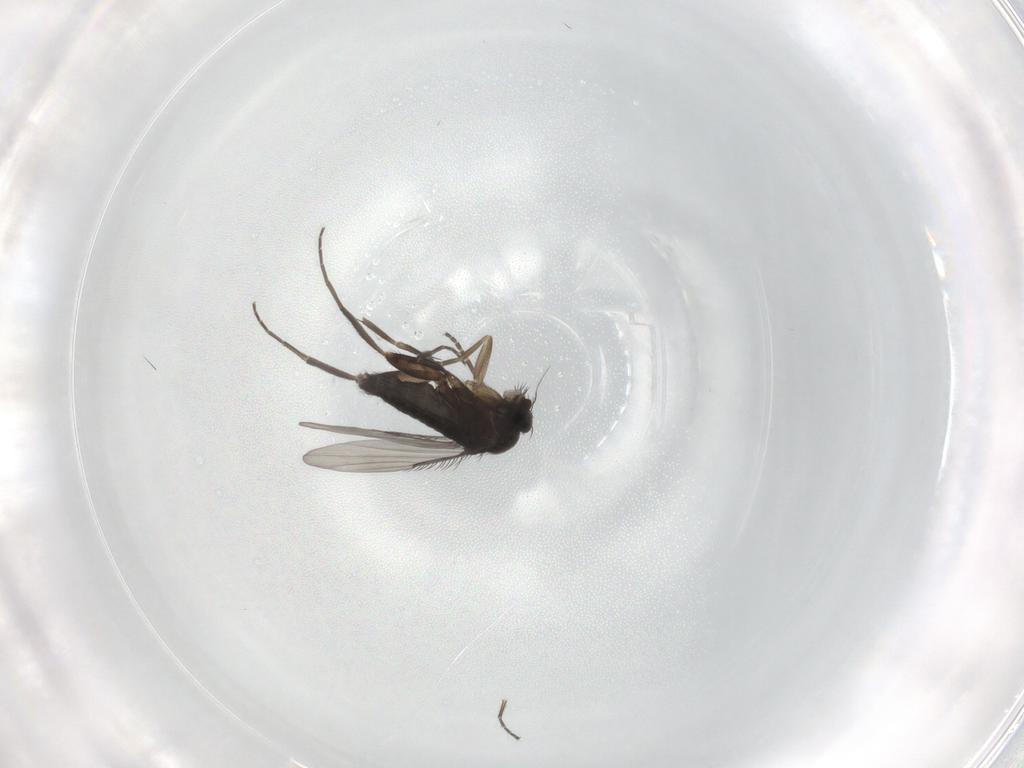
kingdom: Animalia
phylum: Arthropoda
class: Insecta
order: Diptera
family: Phoridae
